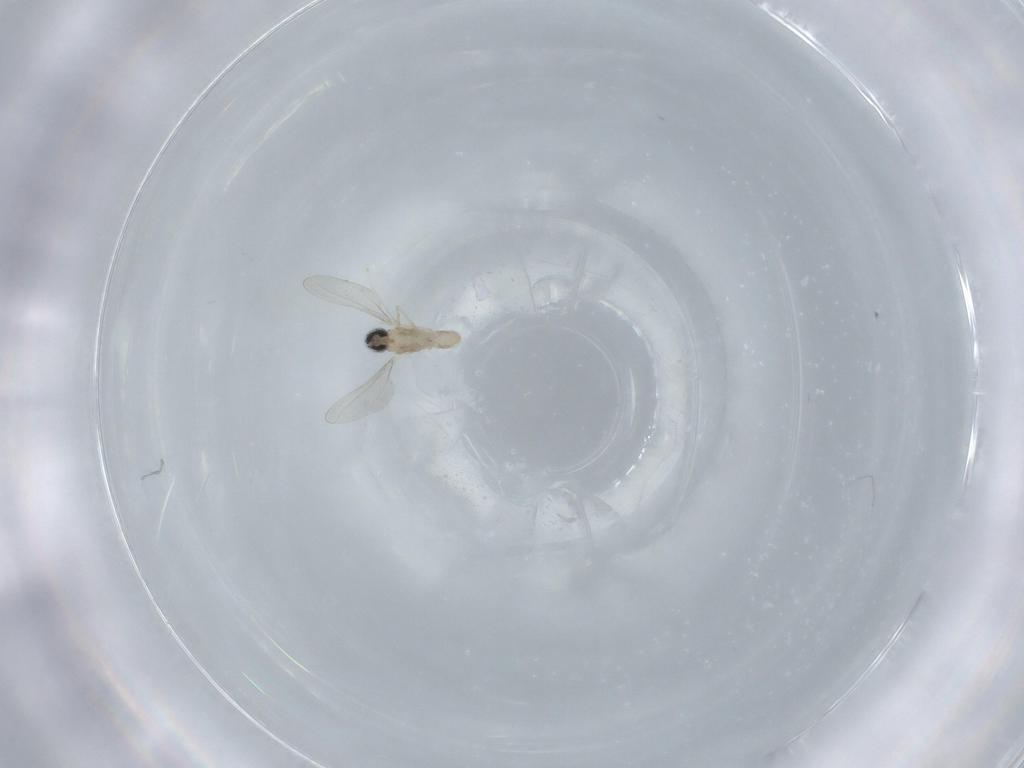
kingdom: Animalia
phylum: Arthropoda
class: Insecta
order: Diptera
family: Cecidomyiidae
